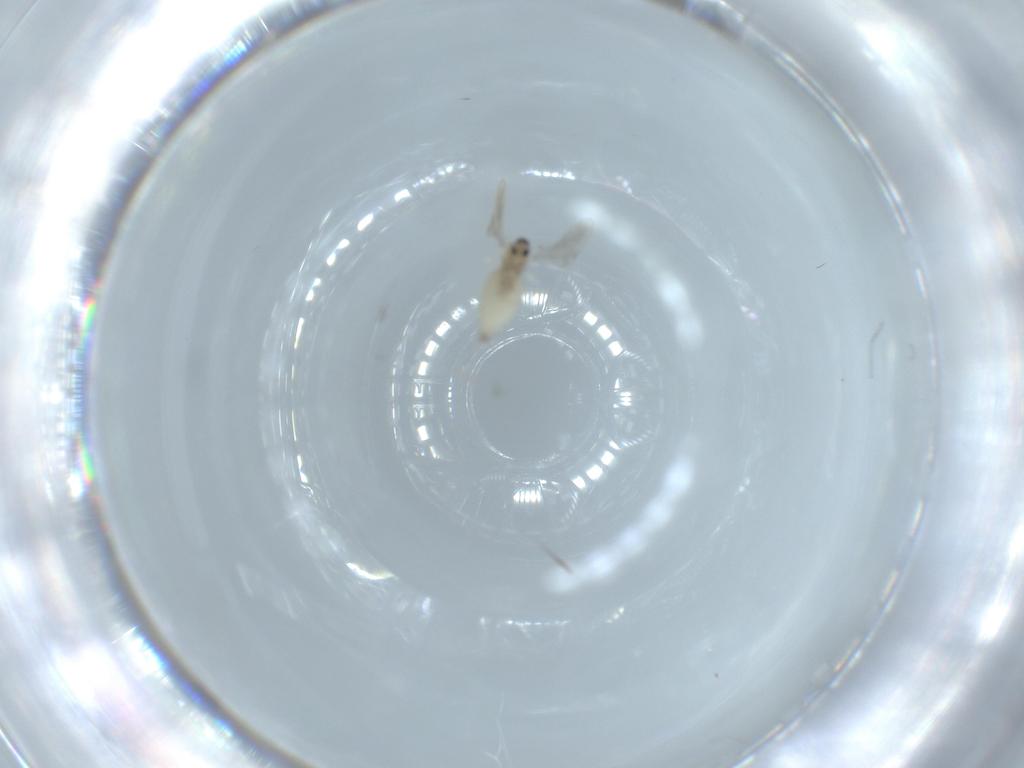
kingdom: Animalia
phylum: Arthropoda
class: Insecta
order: Diptera
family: Cecidomyiidae
